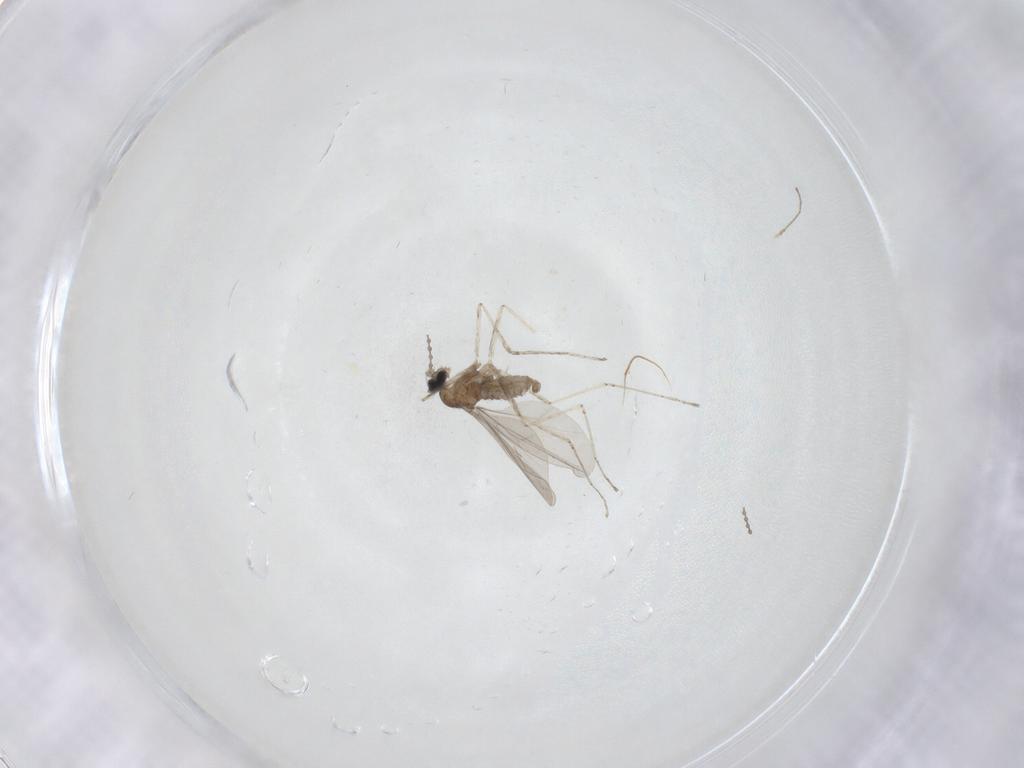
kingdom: Animalia
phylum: Arthropoda
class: Insecta
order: Diptera
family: Cecidomyiidae
